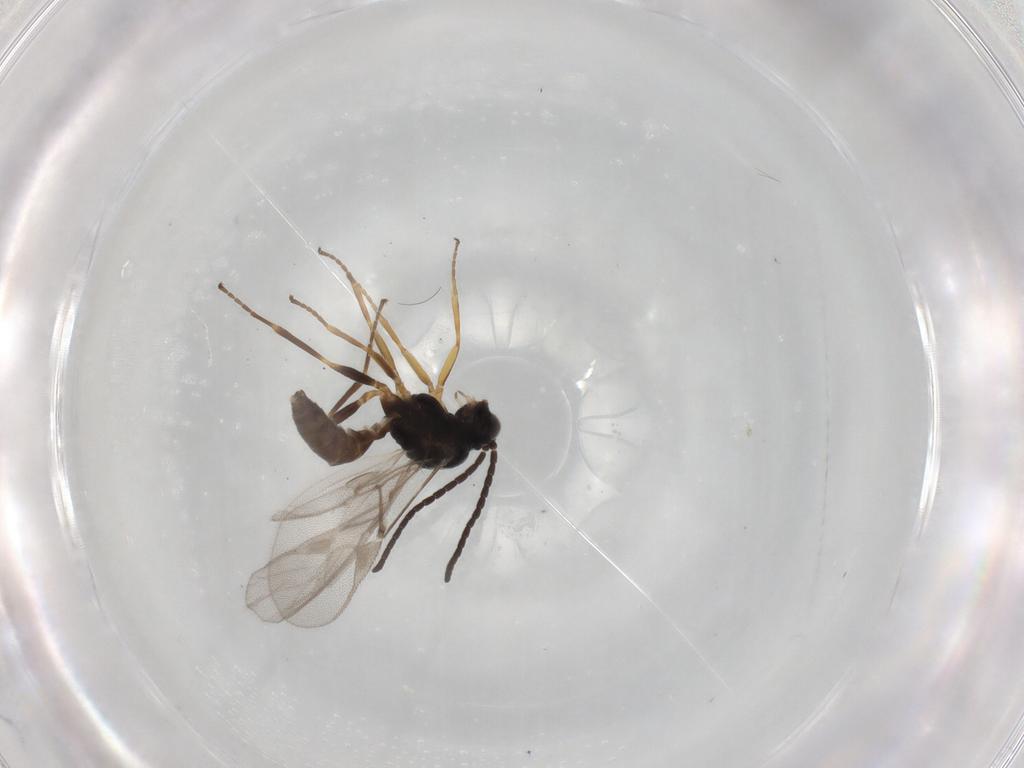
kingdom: Animalia
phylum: Arthropoda
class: Insecta
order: Hymenoptera
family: Braconidae
